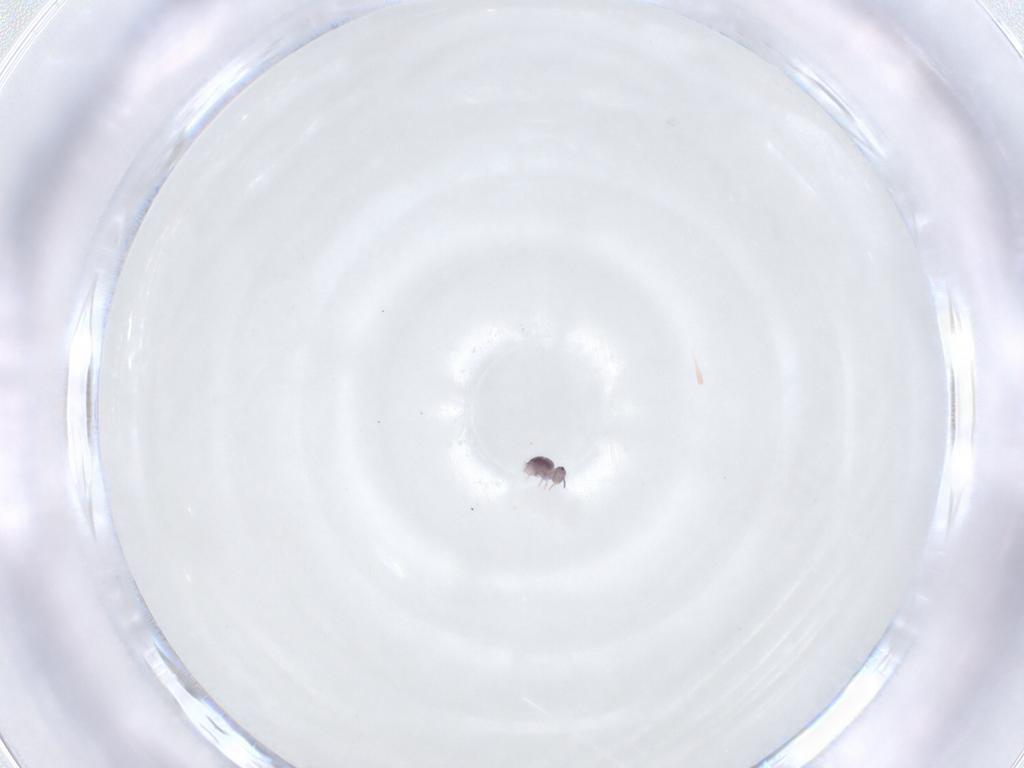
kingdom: Animalia
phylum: Arthropoda
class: Collembola
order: Symphypleona
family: Sminthurididae
